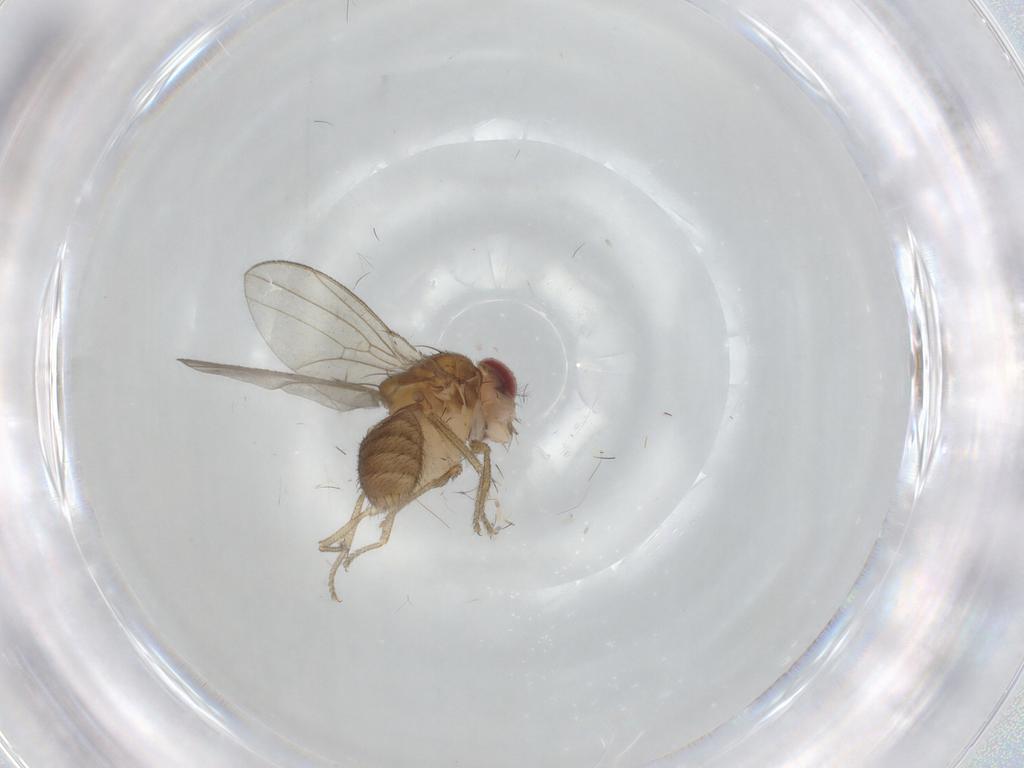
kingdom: Animalia
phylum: Arthropoda
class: Insecta
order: Diptera
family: Drosophilidae
